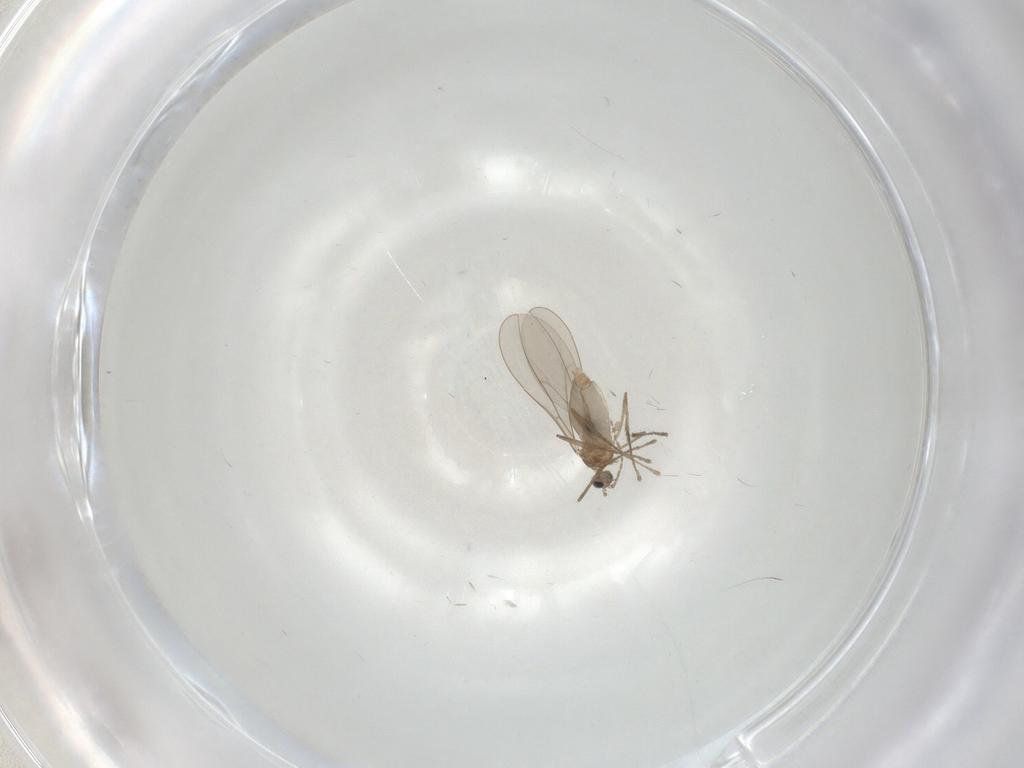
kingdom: Animalia
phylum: Arthropoda
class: Insecta
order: Diptera
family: Cecidomyiidae
